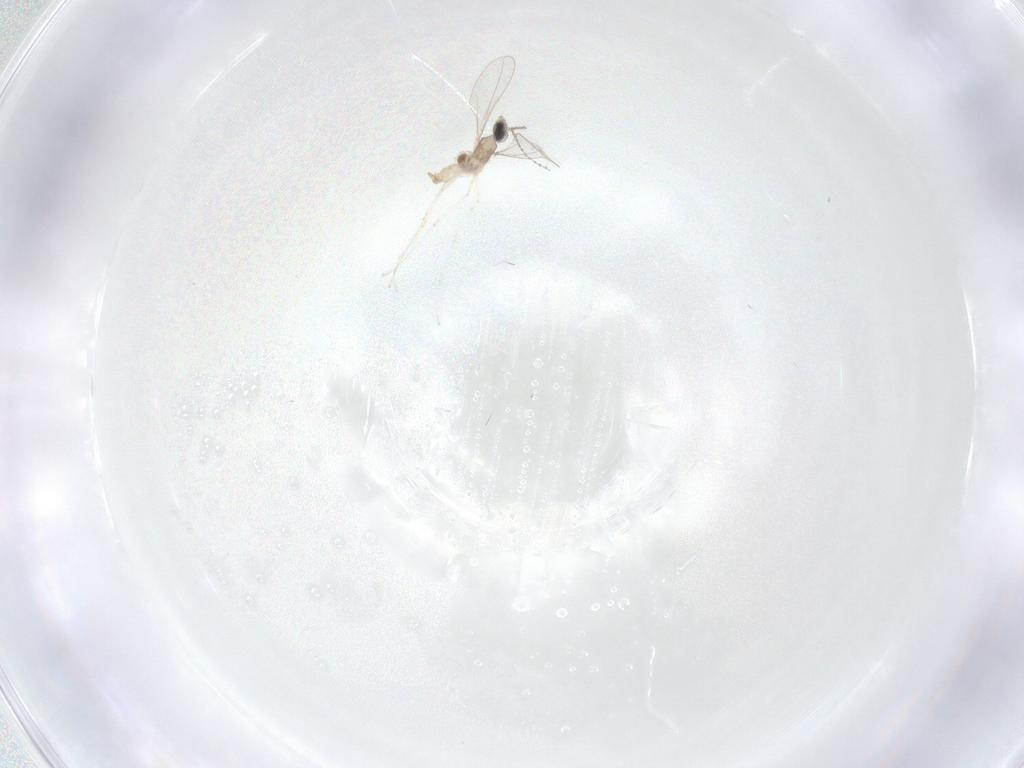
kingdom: Animalia
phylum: Arthropoda
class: Insecta
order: Diptera
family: Cecidomyiidae
